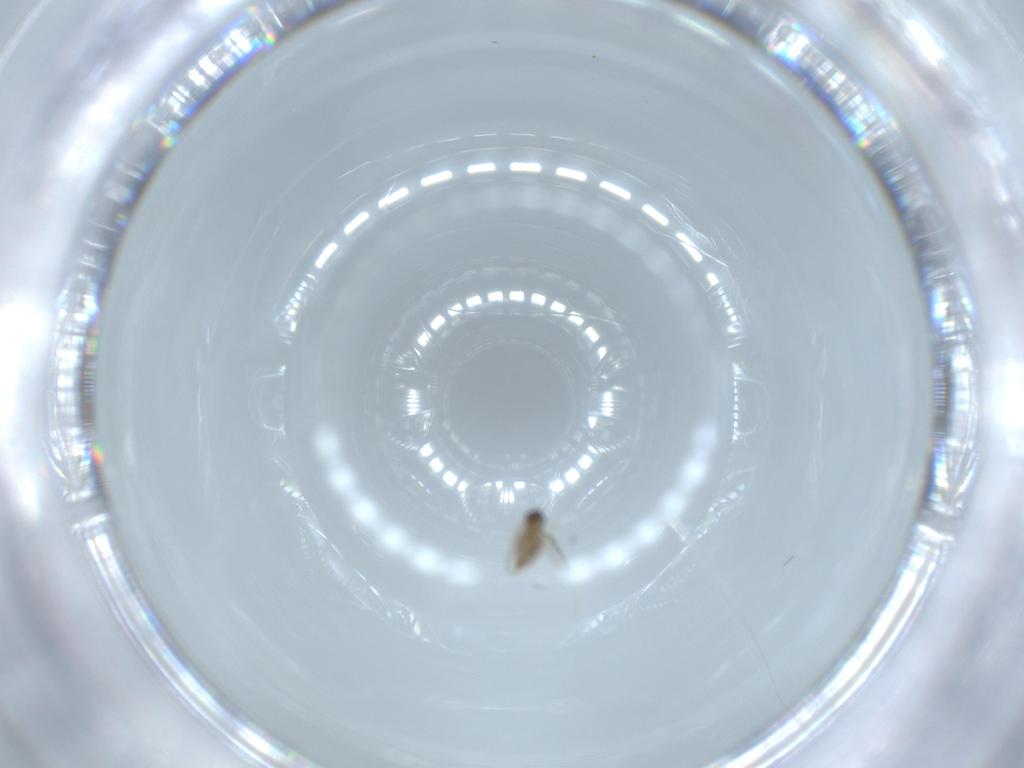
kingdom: Animalia
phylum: Arthropoda
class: Insecta
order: Diptera
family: Cecidomyiidae
